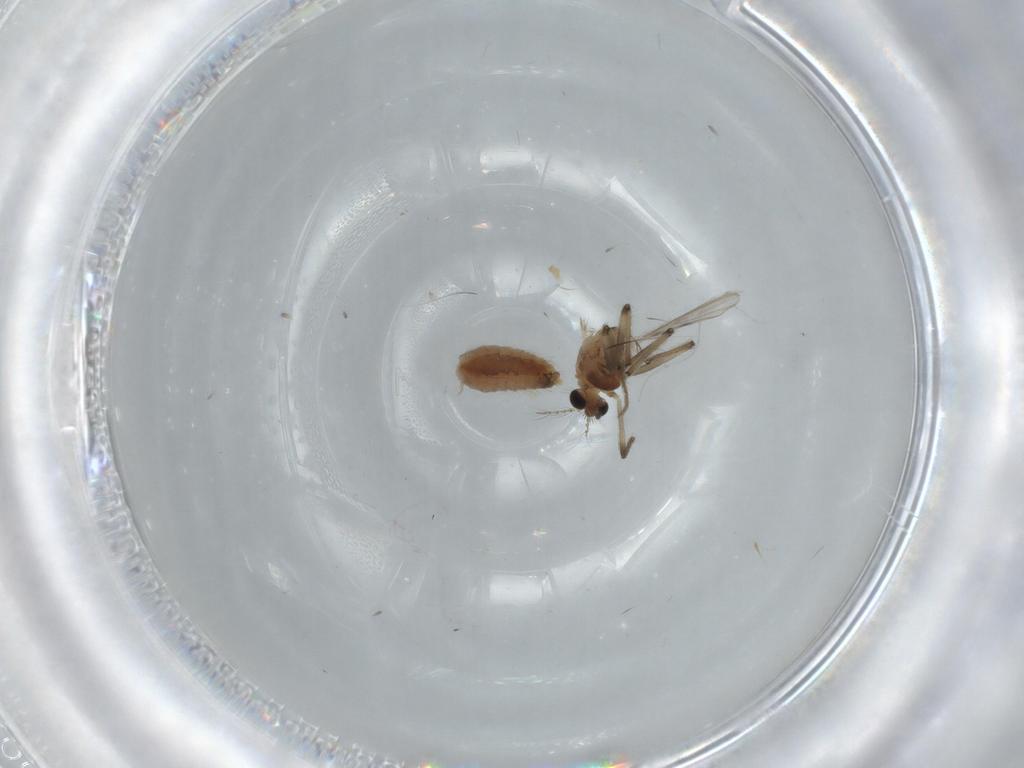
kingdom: Animalia
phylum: Arthropoda
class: Insecta
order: Diptera
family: Chironomidae
